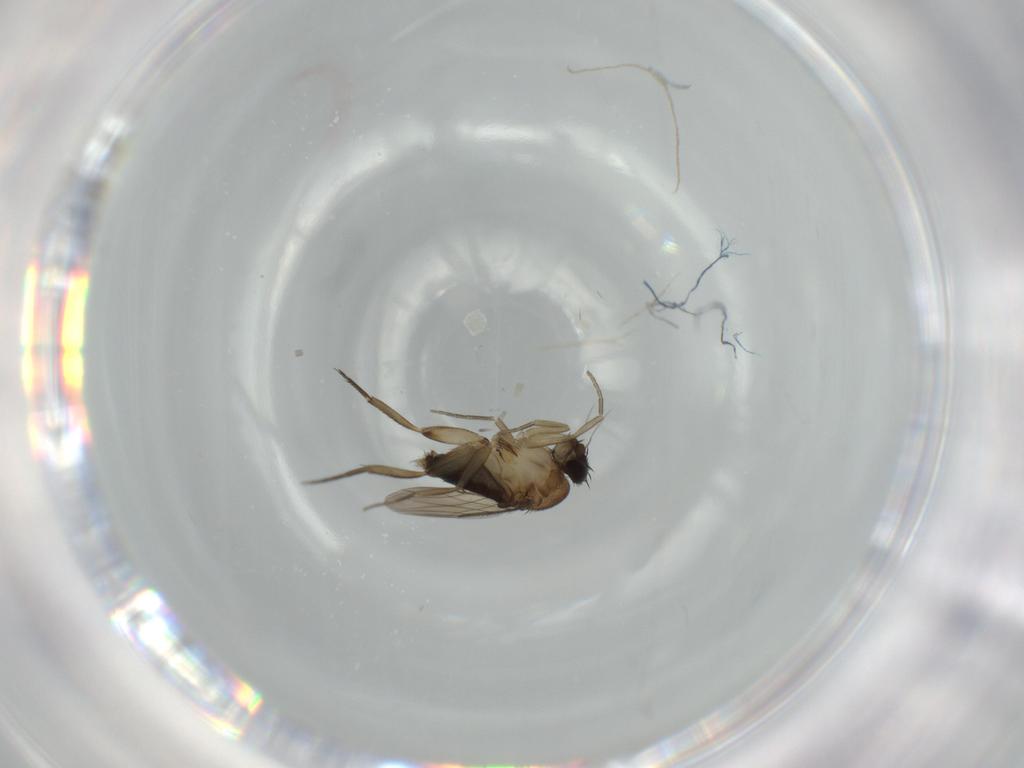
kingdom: Animalia
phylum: Arthropoda
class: Insecta
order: Diptera
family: Phoridae
